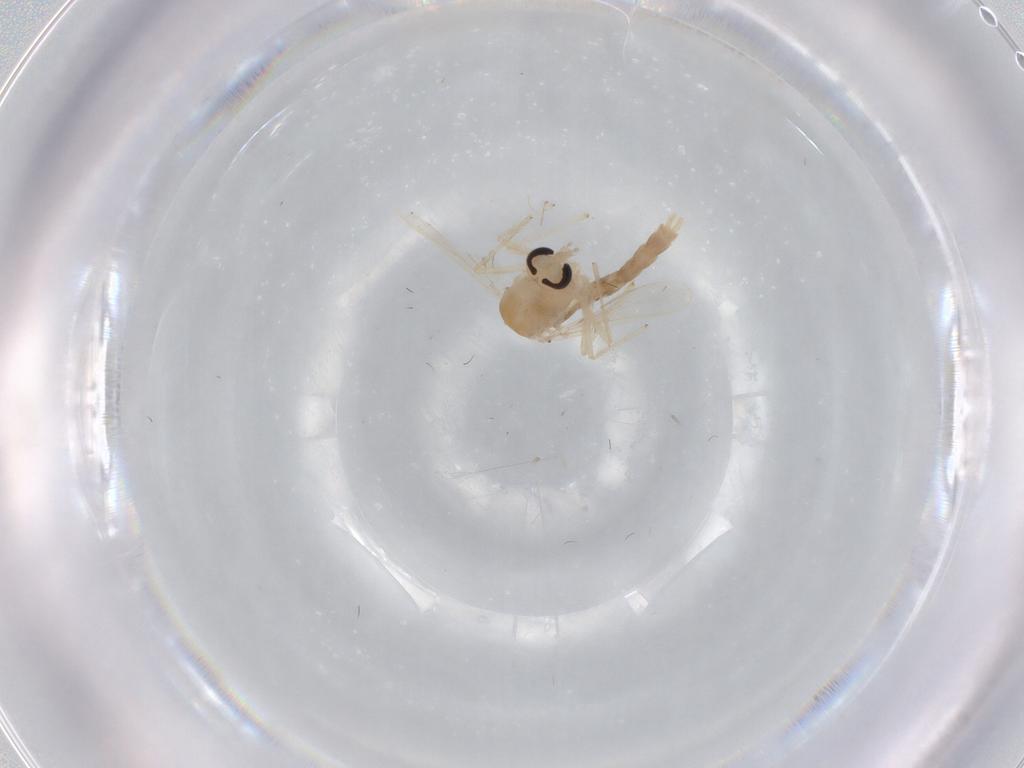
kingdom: Animalia
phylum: Arthropoda
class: Insecta
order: Diptera
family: Chironomidae
